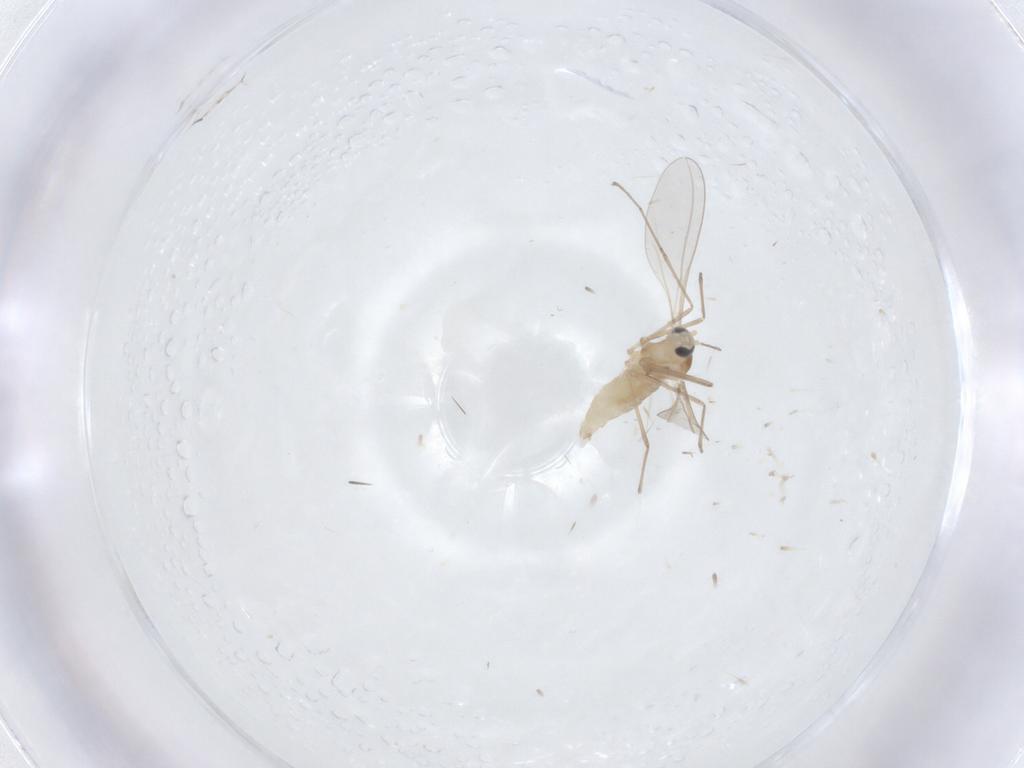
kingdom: Animalia
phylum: Arthropoda
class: Insecta
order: Diptera
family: Cecidomyiidae
